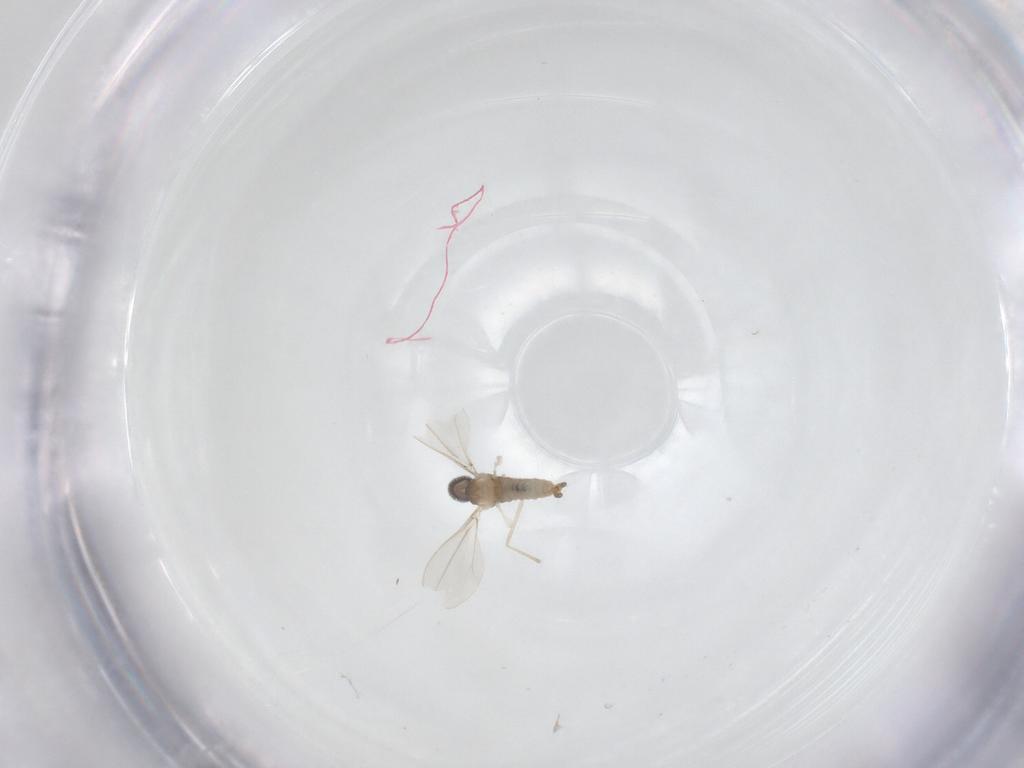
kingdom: Animalia
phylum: Arthropoda
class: Insecta
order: Diptera
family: Cecidomyiidae
